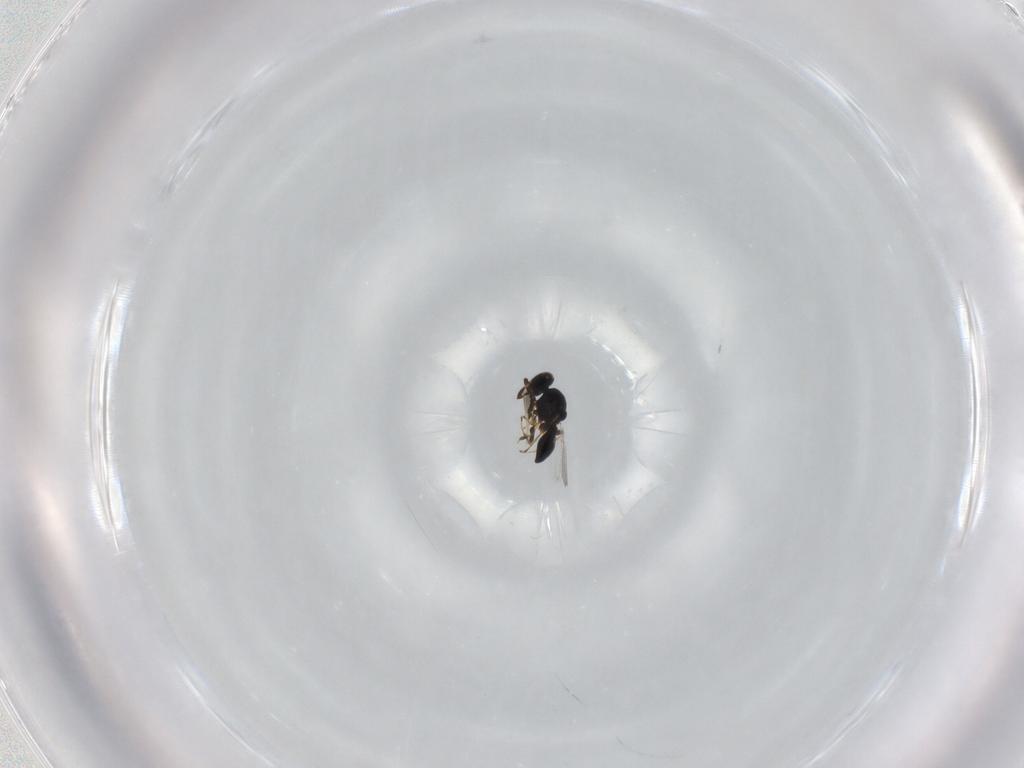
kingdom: Animalia
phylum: Arthropoda
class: Insecta
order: Hymenoptera
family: Platygastridae
